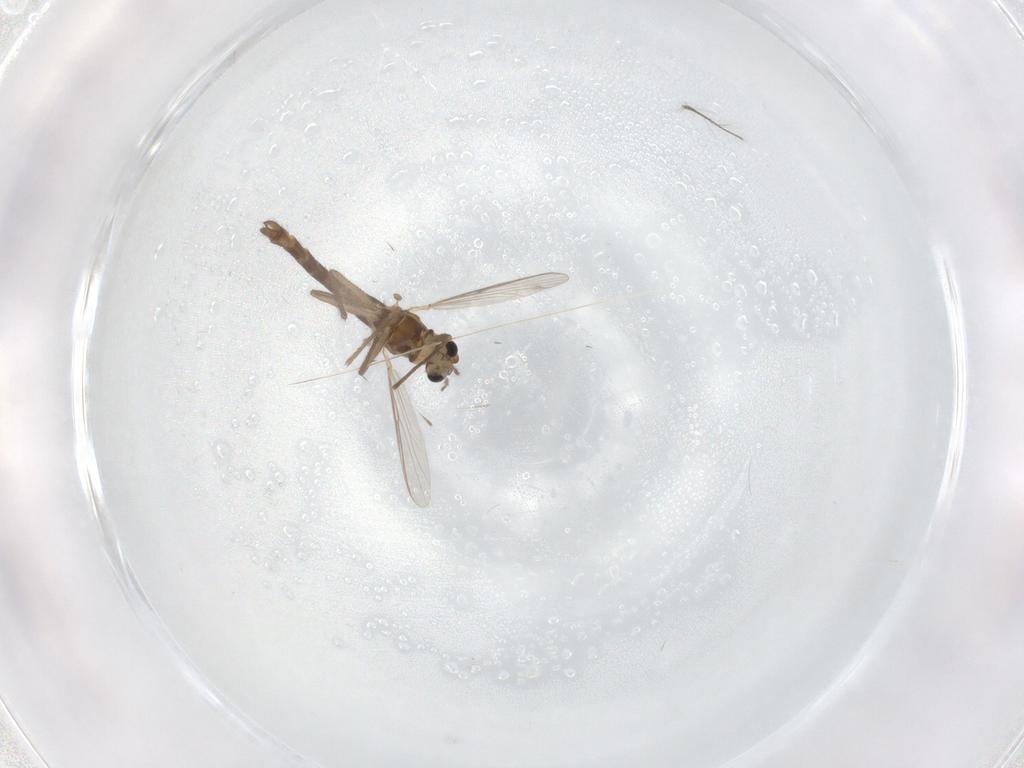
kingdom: Animalia
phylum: Arthropoda
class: Insecta
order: Diptera
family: Chironomidae
